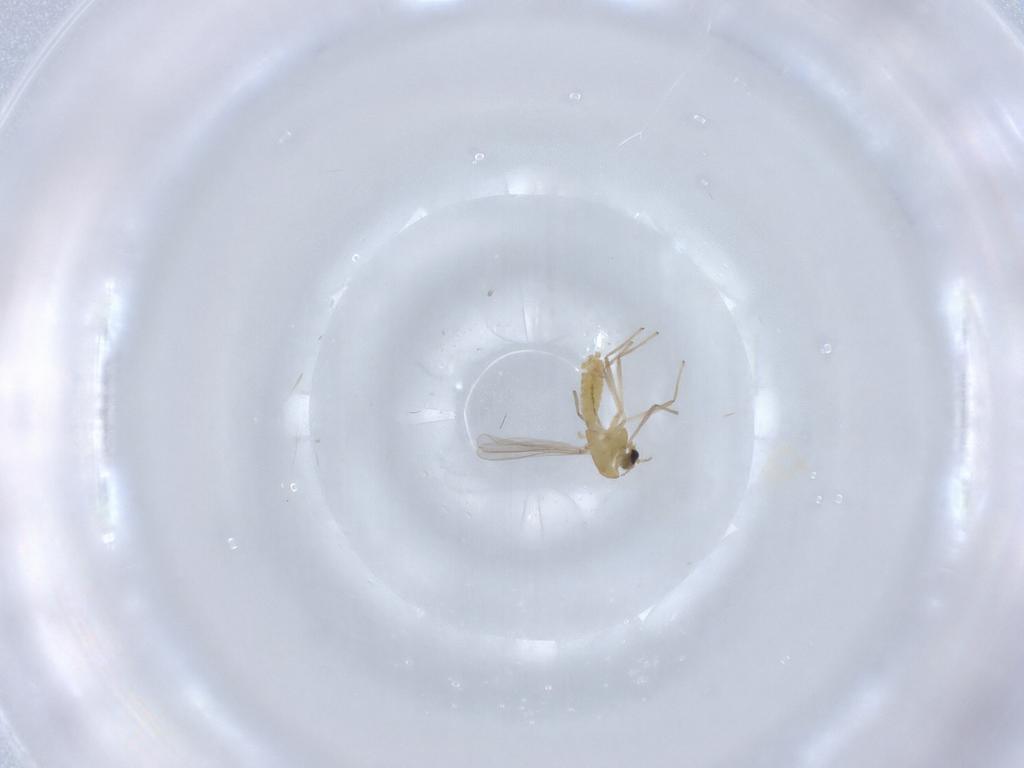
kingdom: Animalia
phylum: Arthropoda
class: Insecta
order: Diptera
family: Chironomidae
